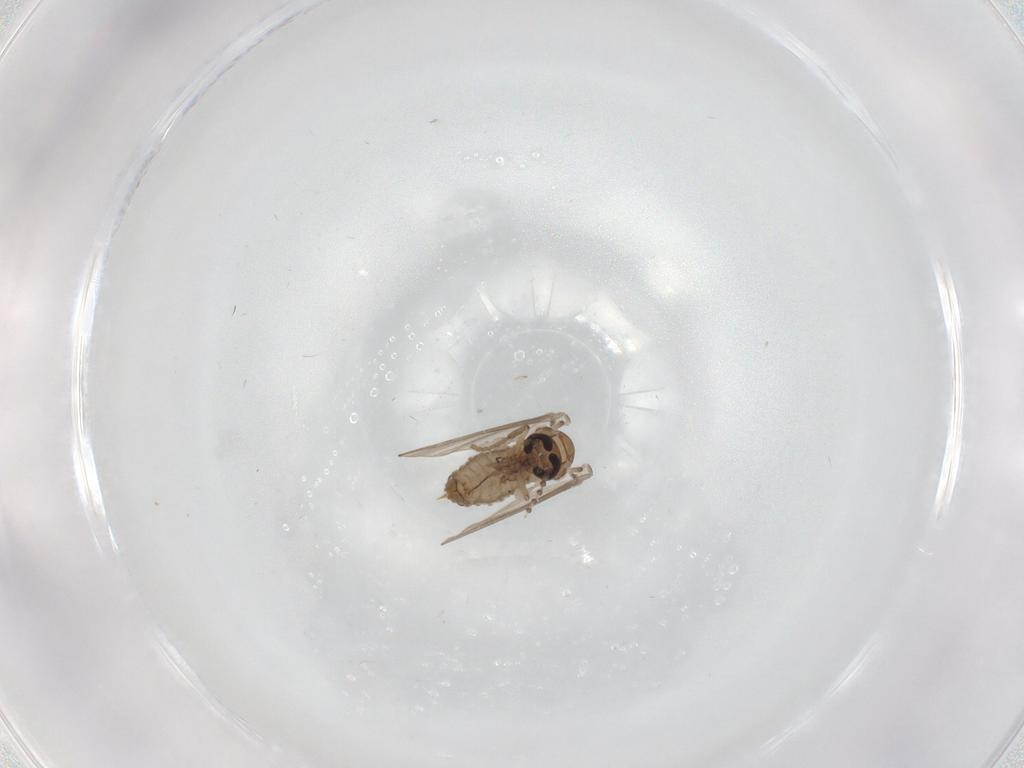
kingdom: Animalia
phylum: Arthropoda
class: Insecta
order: Diptera
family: Psychodidae
